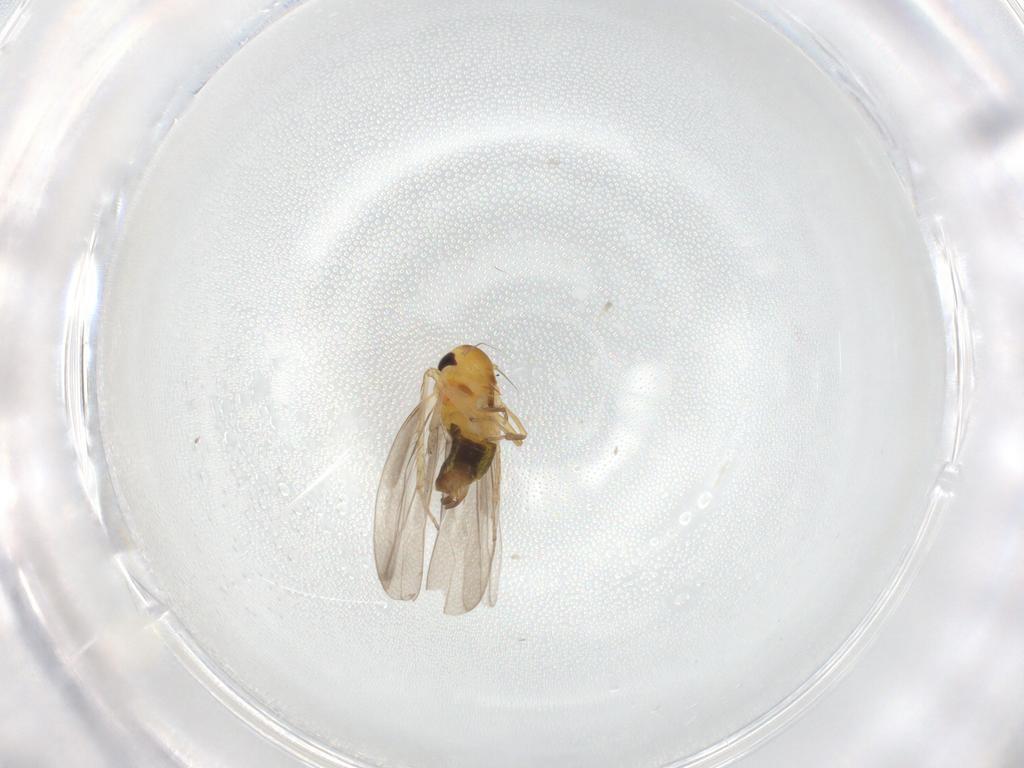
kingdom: Animalia
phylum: Arthropoda
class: Insecta
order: Hemiptera
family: Cicadellidae
